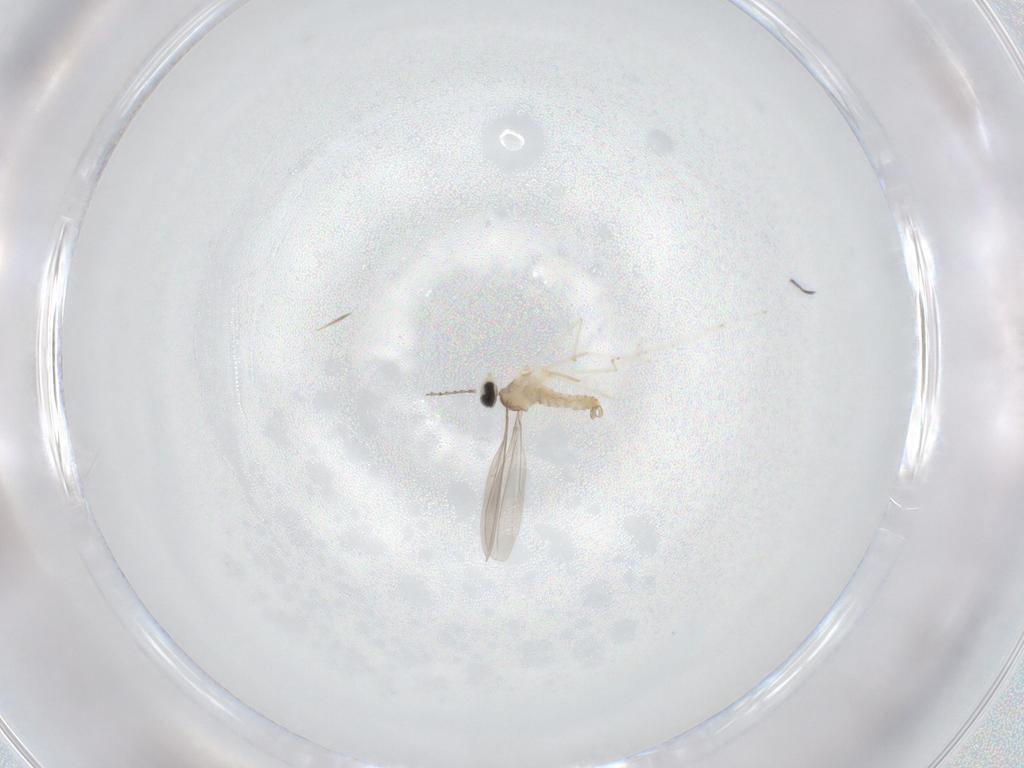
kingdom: Animalia
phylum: Arthropoda
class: Insecta
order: Diptera
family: Cecidomyiidae
